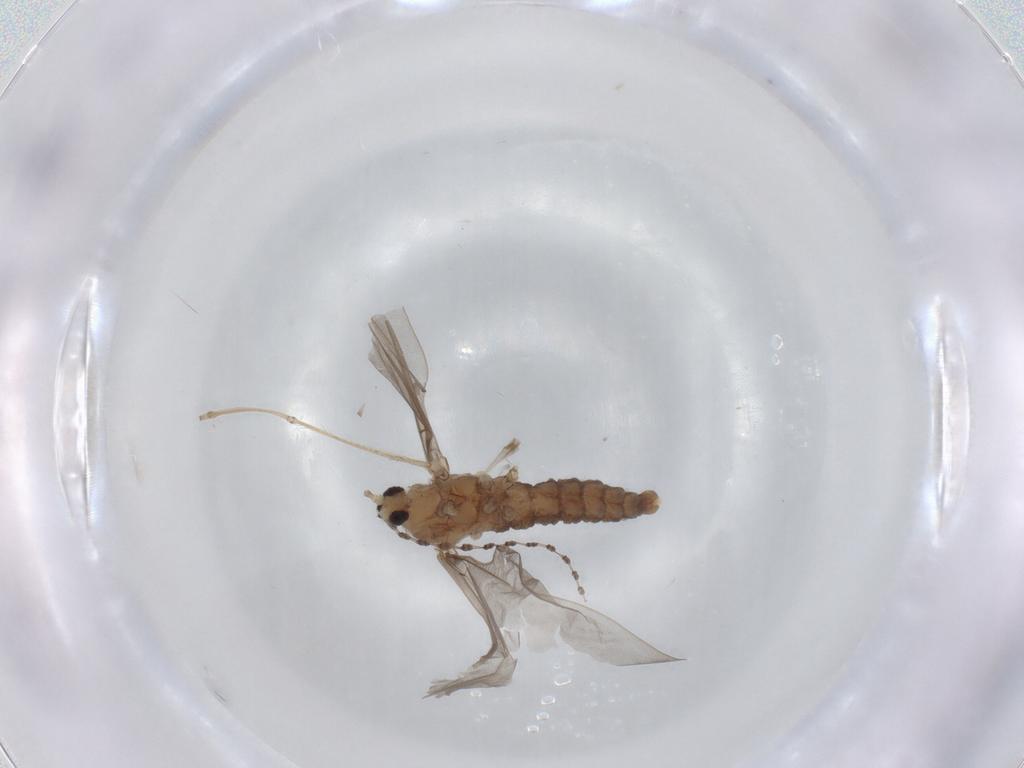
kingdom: Animalia
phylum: Arthropoda
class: Insecta
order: Diptera
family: Cecidomyiidae
